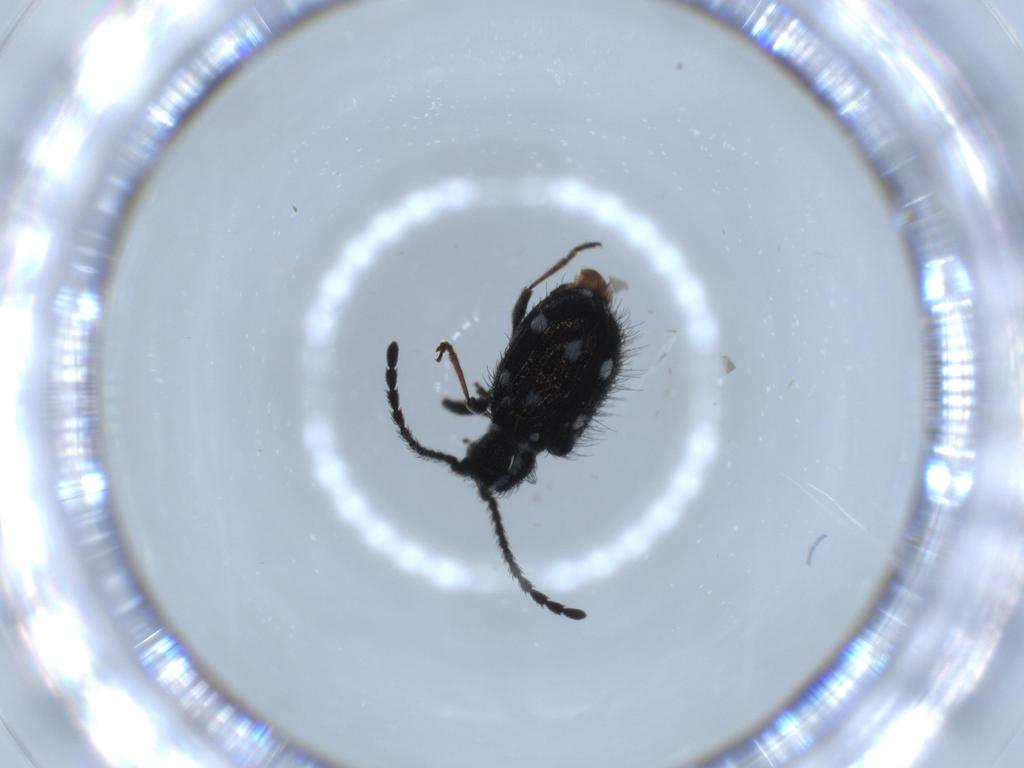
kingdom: Animalia
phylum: Arthropoda
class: Insecta
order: Coleoptera
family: Chrysomelidae
